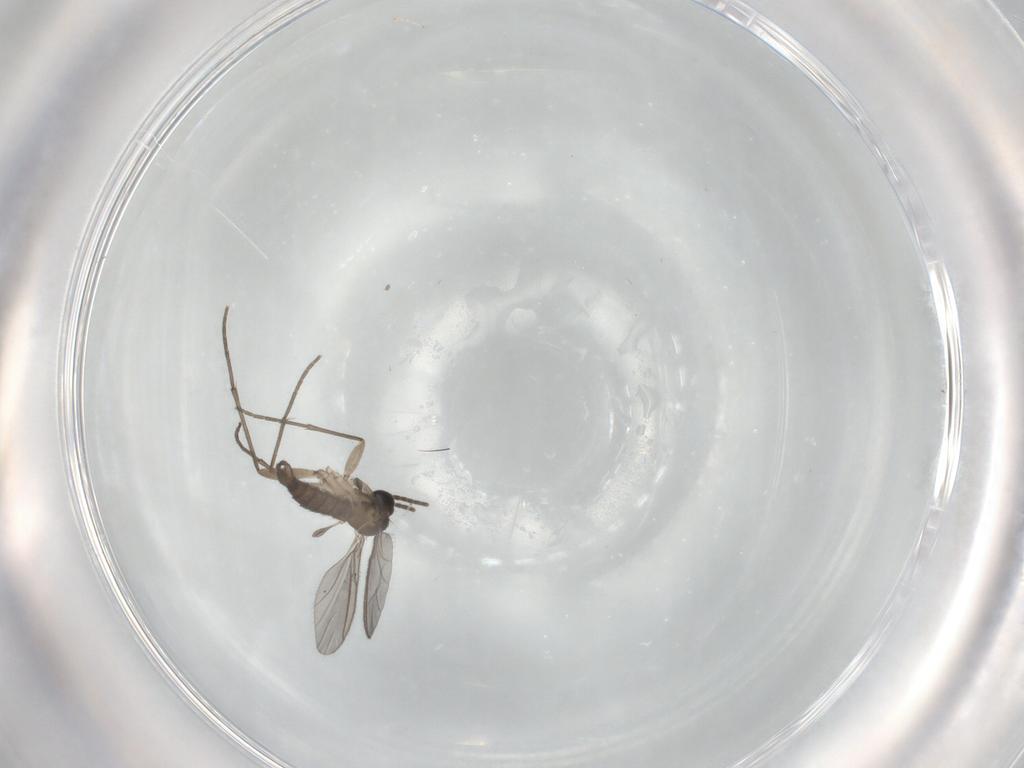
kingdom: Animalia
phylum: Arthropoda
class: Insecta
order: Diptera
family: Sciaridae
